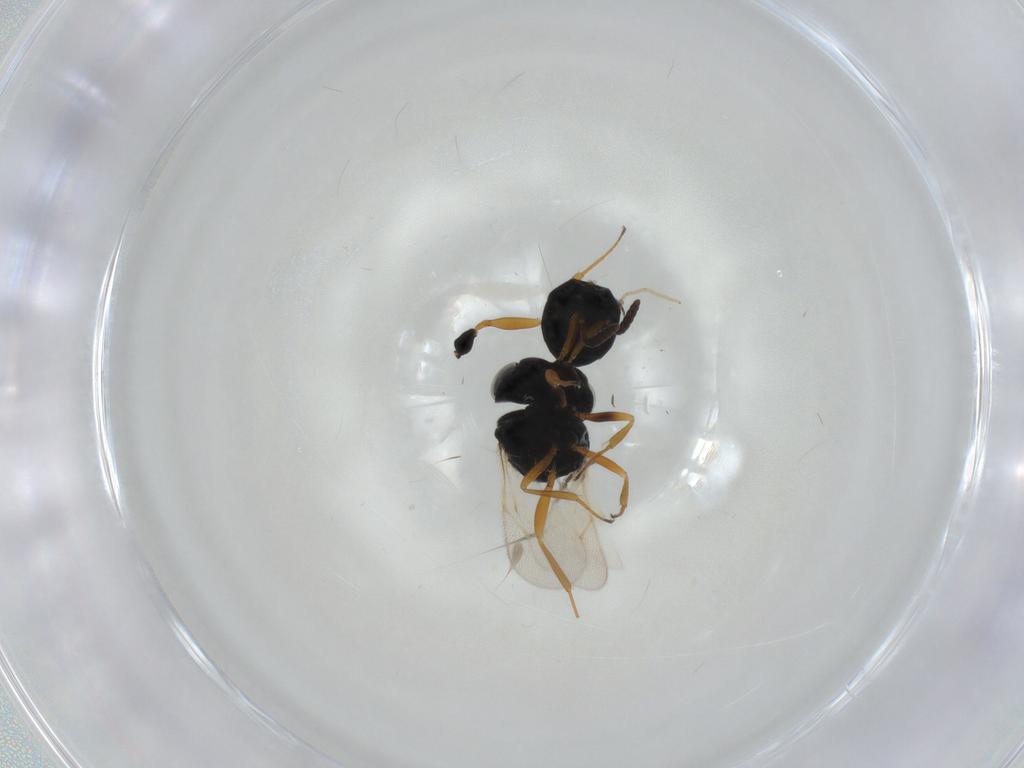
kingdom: Animalia
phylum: Arthropoda
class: Insecta
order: Hymenoptera
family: Scelionidae
